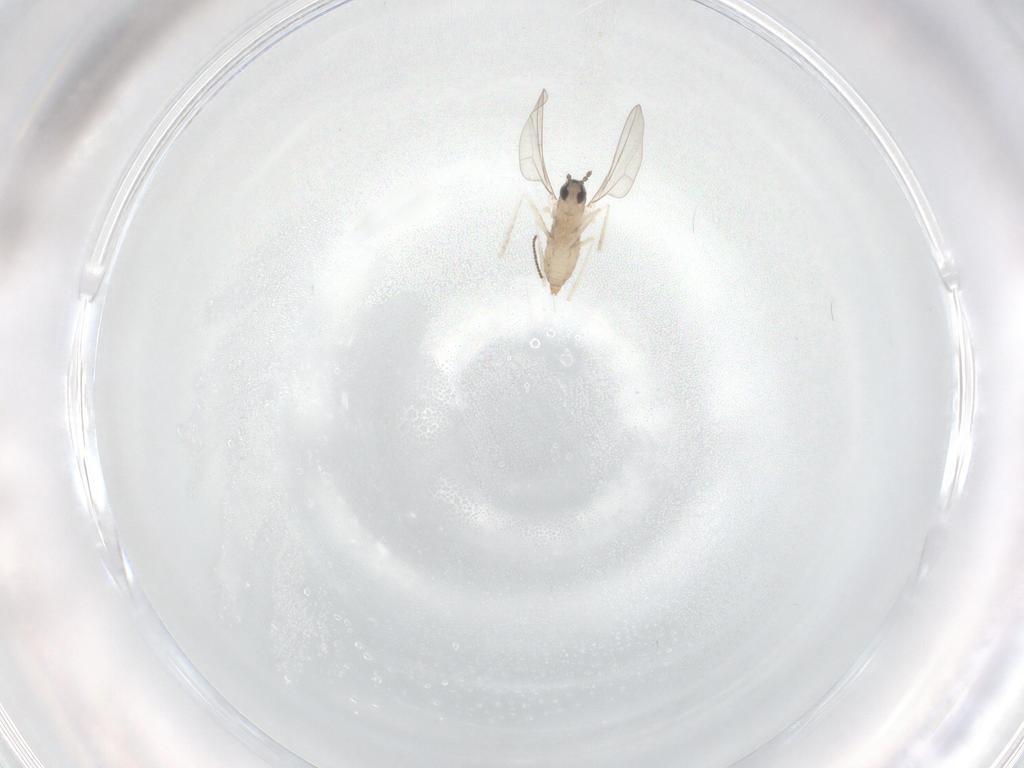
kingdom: Animalia
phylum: Arthropoda
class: Insecta
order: Diptera
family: Cecidomyiidae
